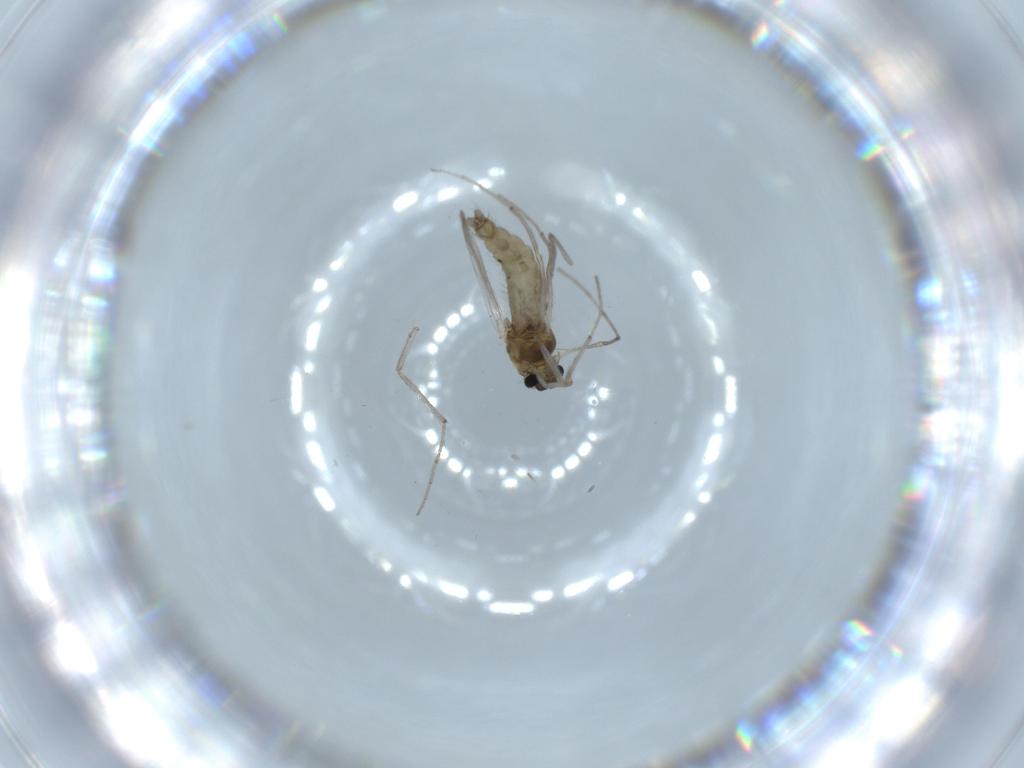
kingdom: Animalia
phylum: Arthropoda
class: Insecta
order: Diptera
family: Chironomidae
